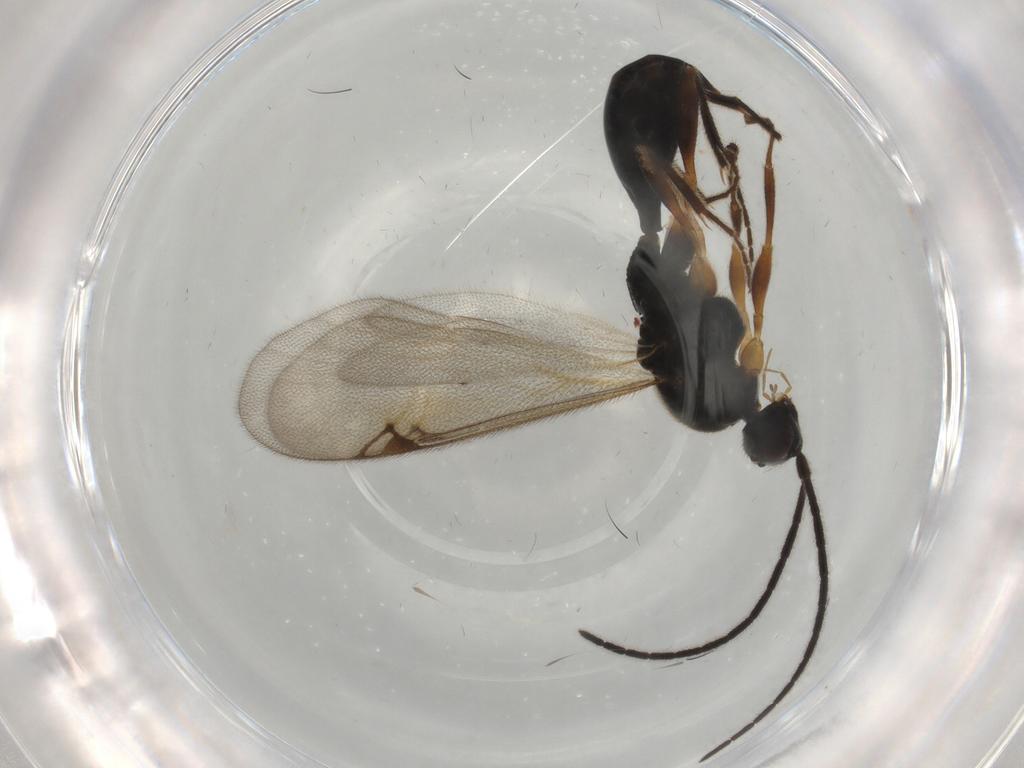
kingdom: Animalia
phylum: Arthropoda
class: Insecta
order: Hymenoptera
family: Proctotrupidae
